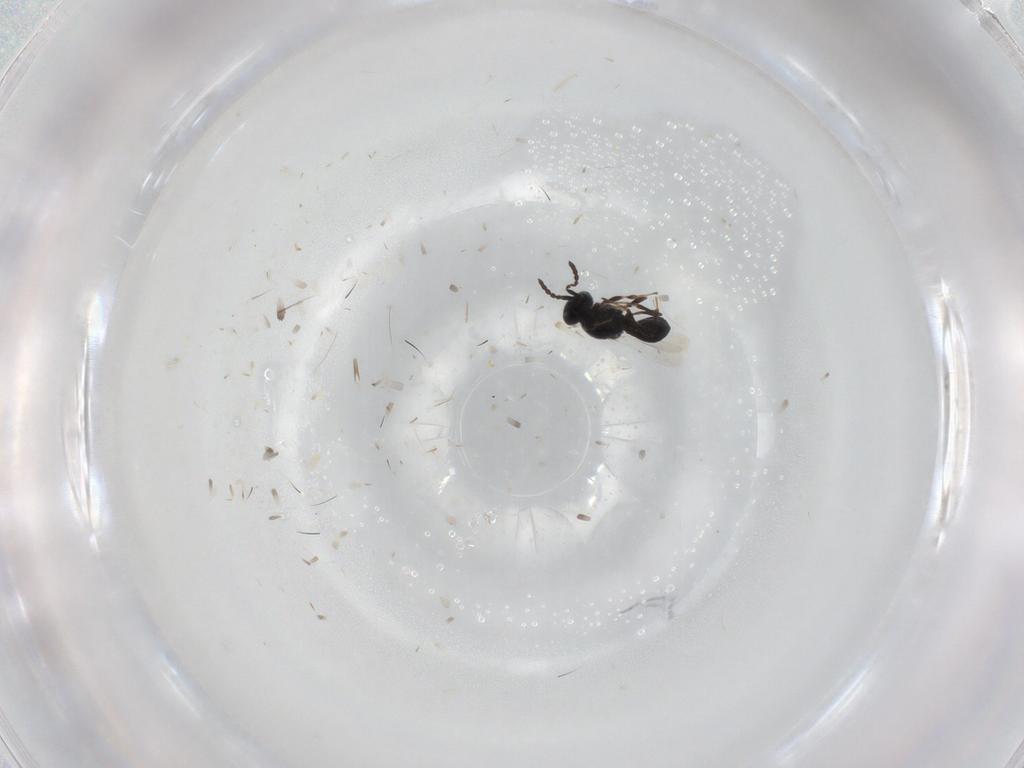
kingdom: Animalia
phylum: Arthropoda
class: Insecta
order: Hymenoptera
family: Platygastridae
